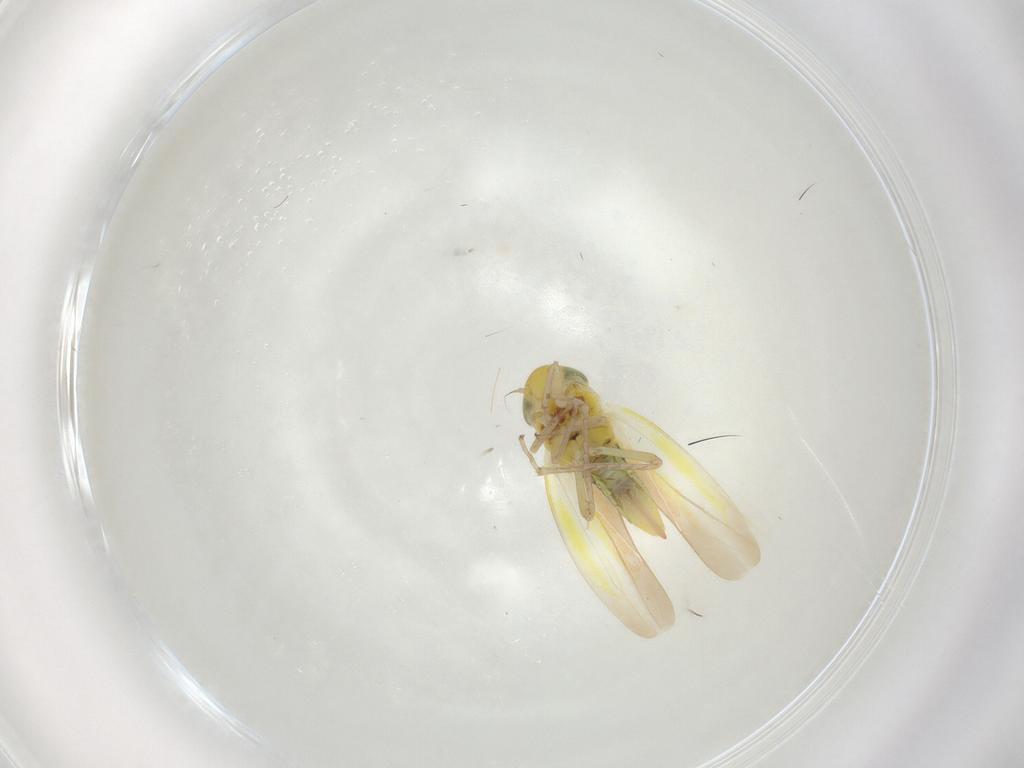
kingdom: Animalia
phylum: Arthropoda
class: Insecta
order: Hemiptera
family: Cicadellidae
